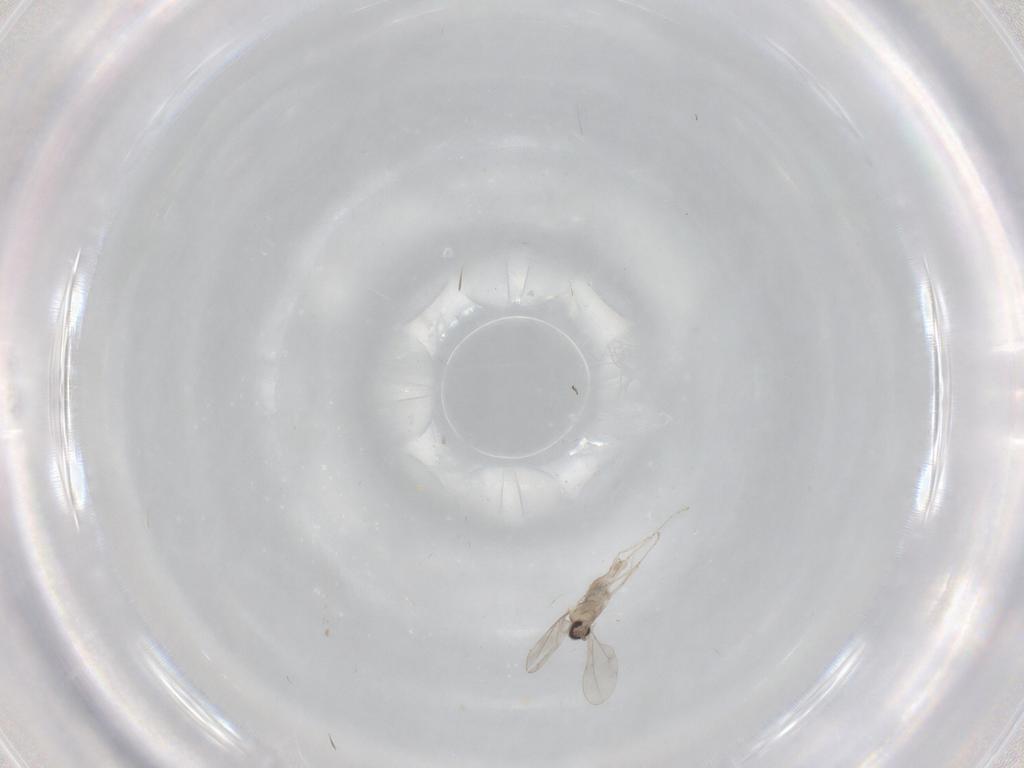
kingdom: Animalia
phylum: Arthropoda
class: Insecta
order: Diptera
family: Cecidomyiidae
